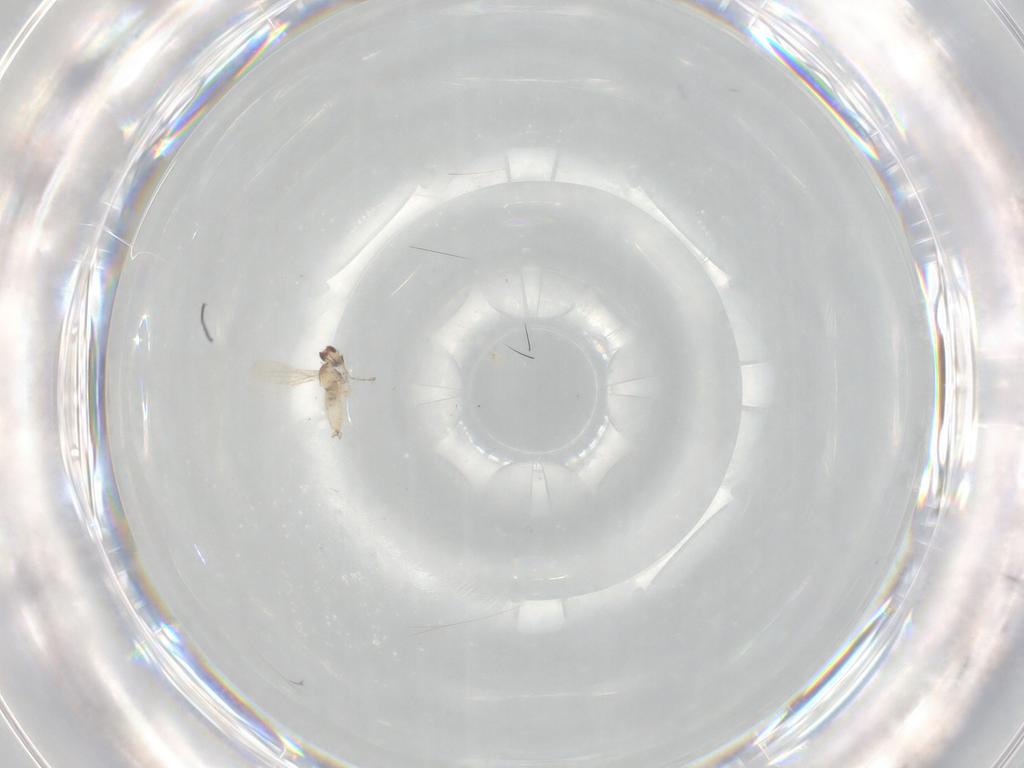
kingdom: Animalia
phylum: Arthropoda
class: Insecta
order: Diptera
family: Cecidomyiidae
